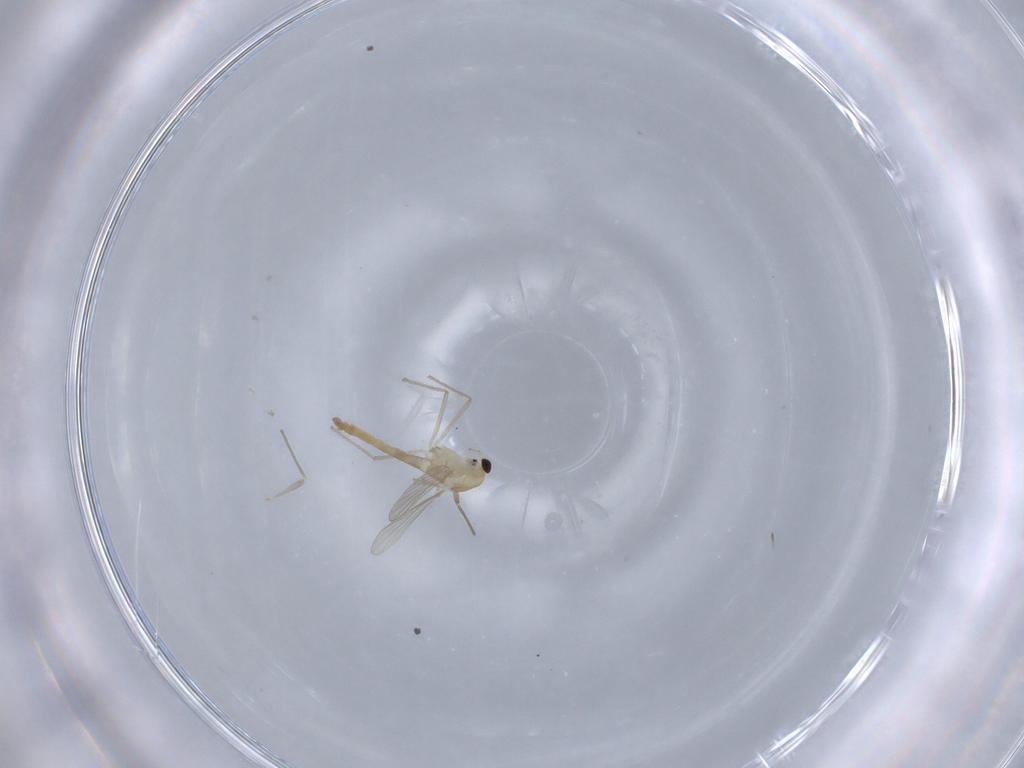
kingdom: Animalia
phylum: Arthropoda
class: Insecta
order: Diptera
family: Chironomidae
